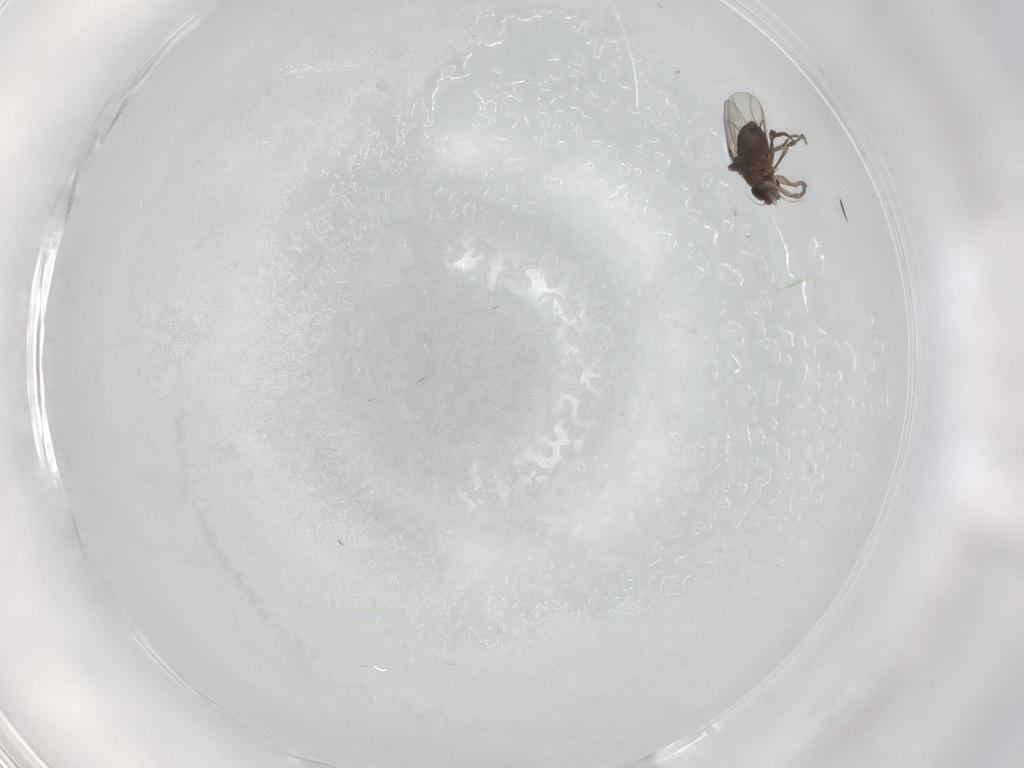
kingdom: Animalia
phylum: Arthropoda
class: Insecta
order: Diptera
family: Phoridae
